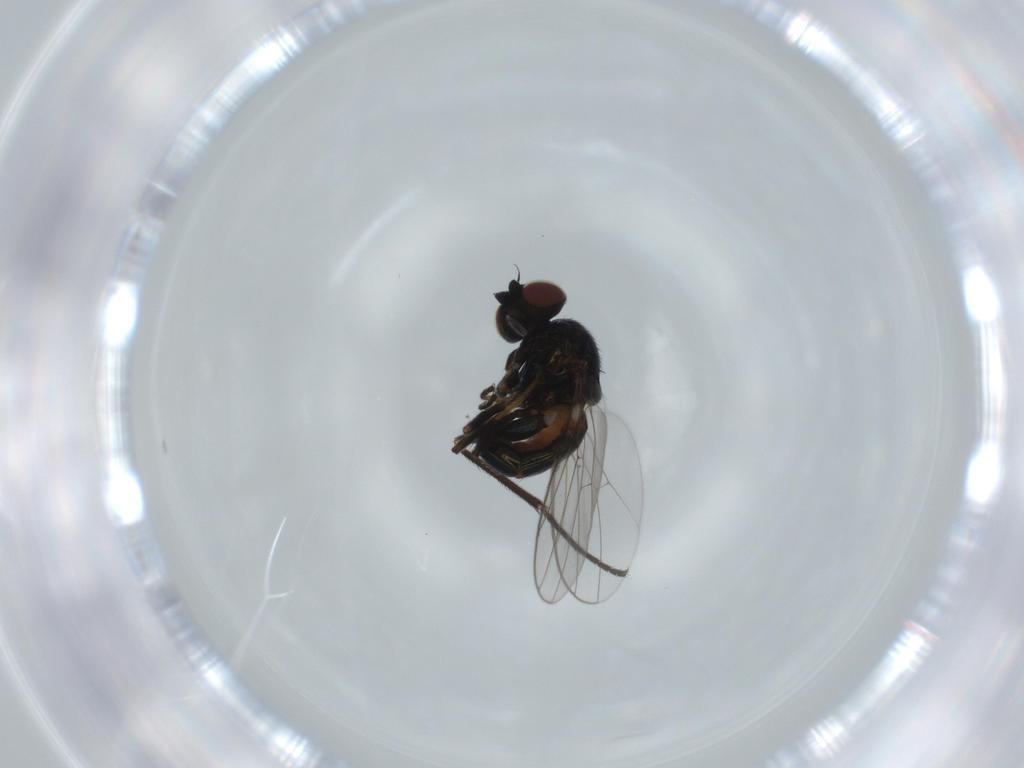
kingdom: Animalia
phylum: Arthropoda
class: Insecta
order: Diptera
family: Chloropidae
